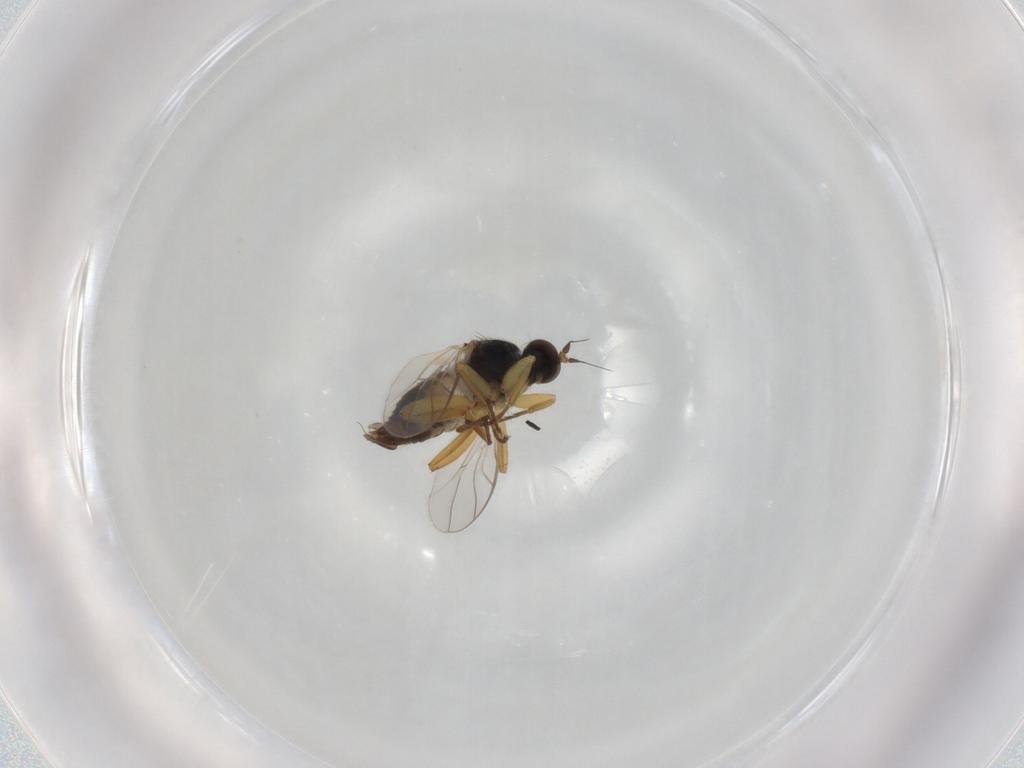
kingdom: Animalia
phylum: Arthropoda
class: Insecta
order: Diptera
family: Hybotidae
